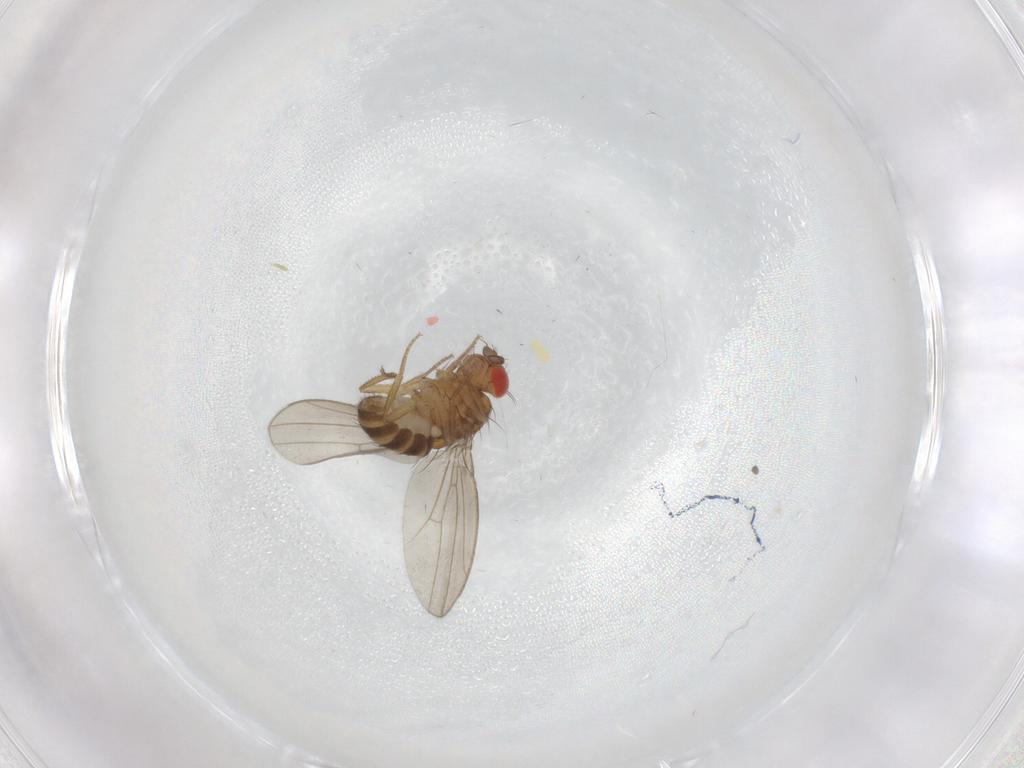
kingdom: Animalia
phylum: Arthropoda
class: Insecta
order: Diptera
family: Drosophilidae
